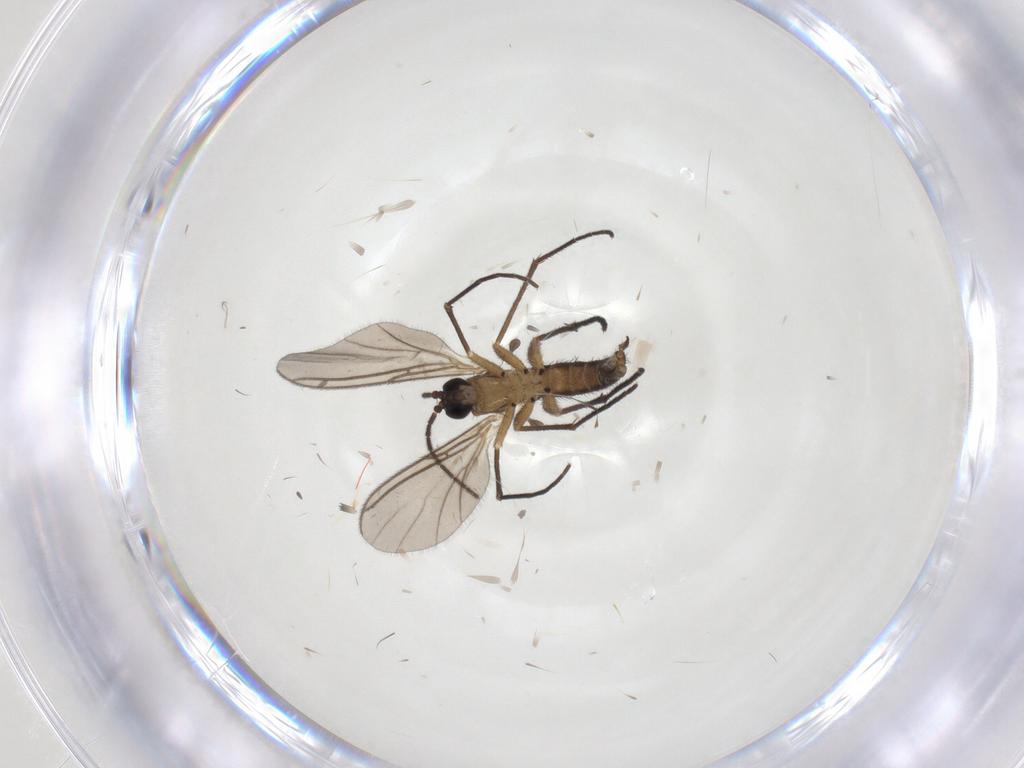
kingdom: Animalia
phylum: Arthropoda
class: Insecta
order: Diptera
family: Sciaridae
